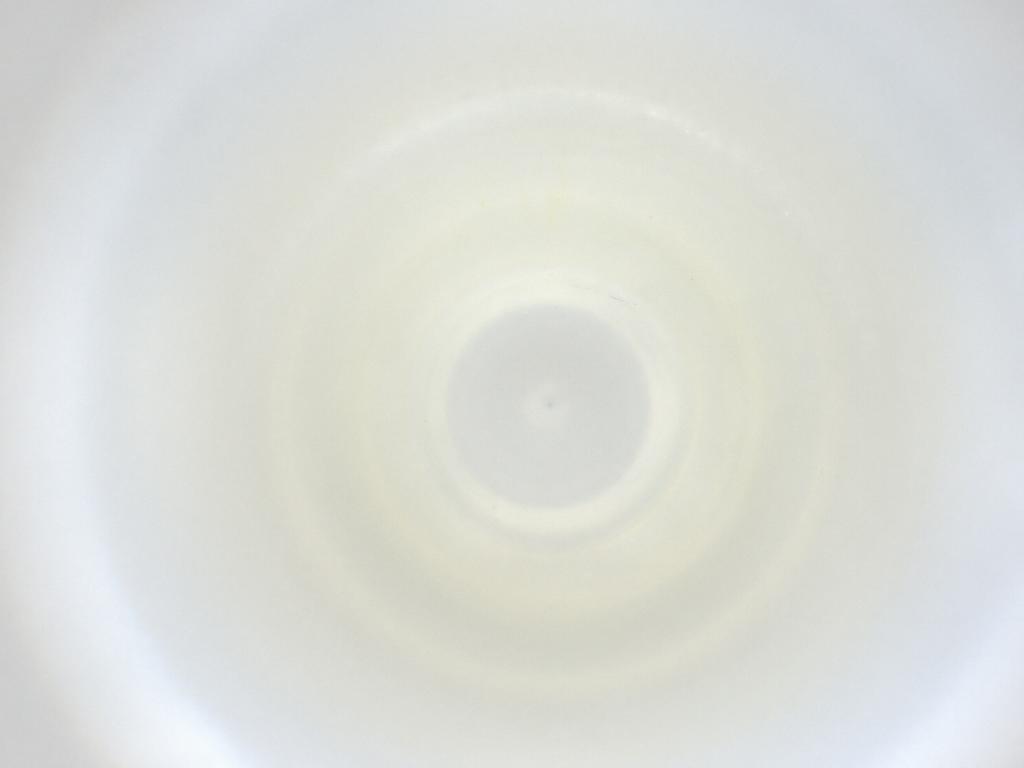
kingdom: Animalia
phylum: Arthropoda
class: Insecta
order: Diptera
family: Cecidomyiidae
